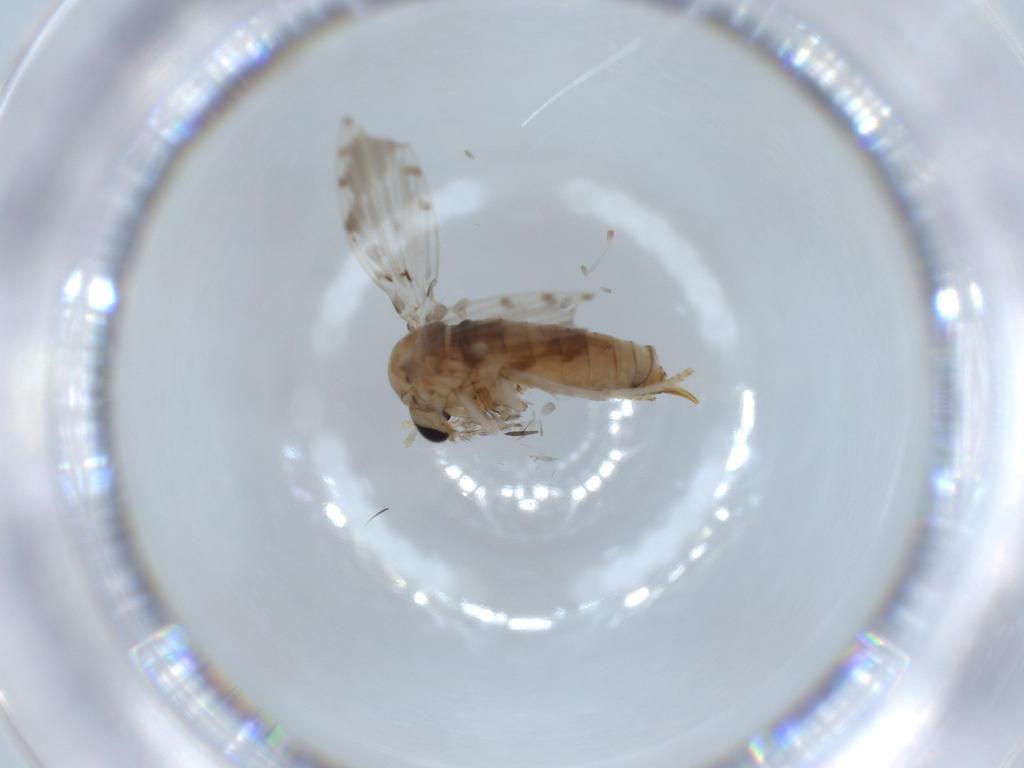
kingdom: Animalia
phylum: Arthropoda
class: Insecta
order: Diptera
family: Psychodidae
